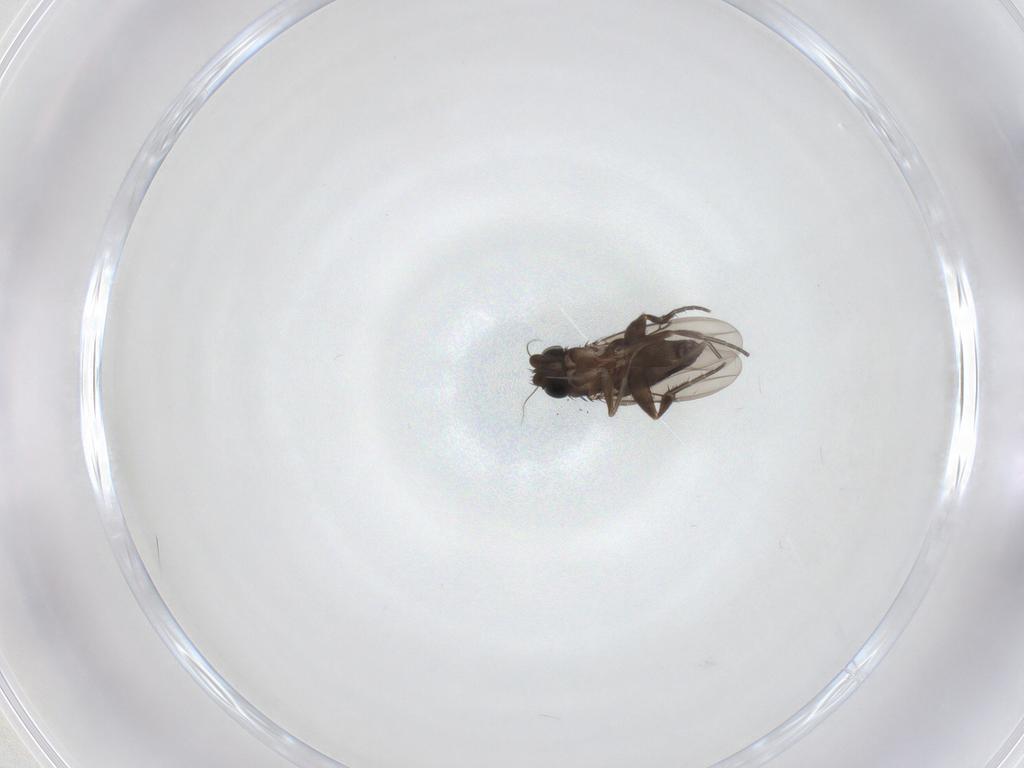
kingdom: Animalia
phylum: Arthropoda
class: Insecta
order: Diptera
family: Phoridae
